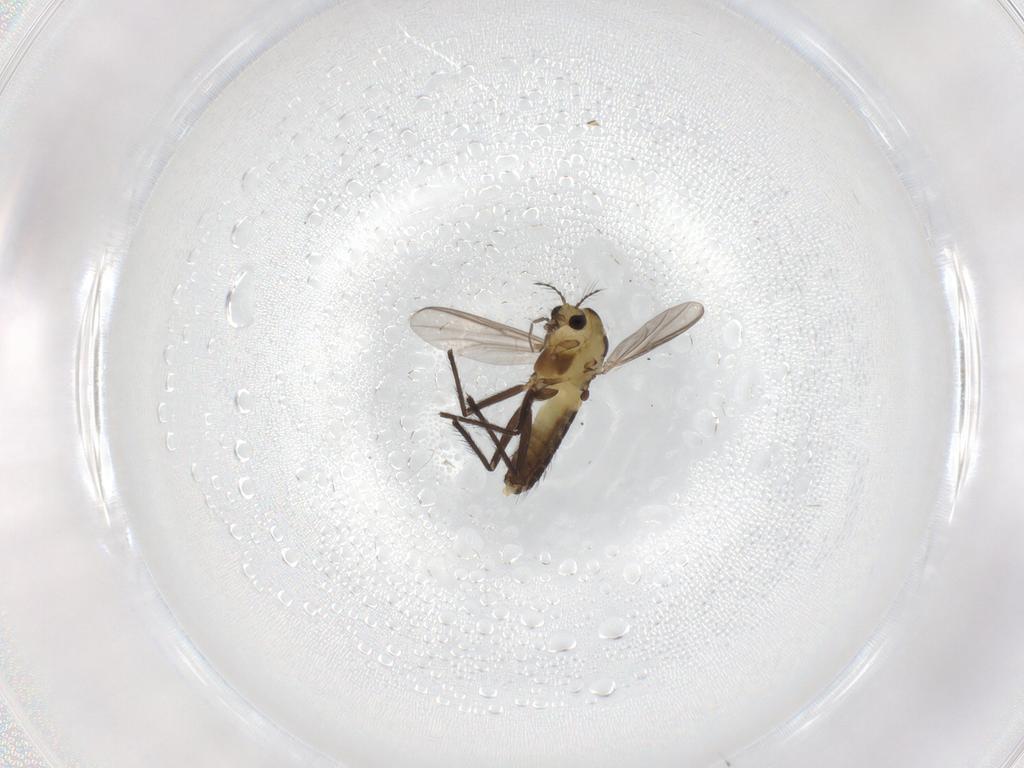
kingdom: Animalia
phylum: Arthropoda
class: Insecta
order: Diptera
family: Chironomidae
